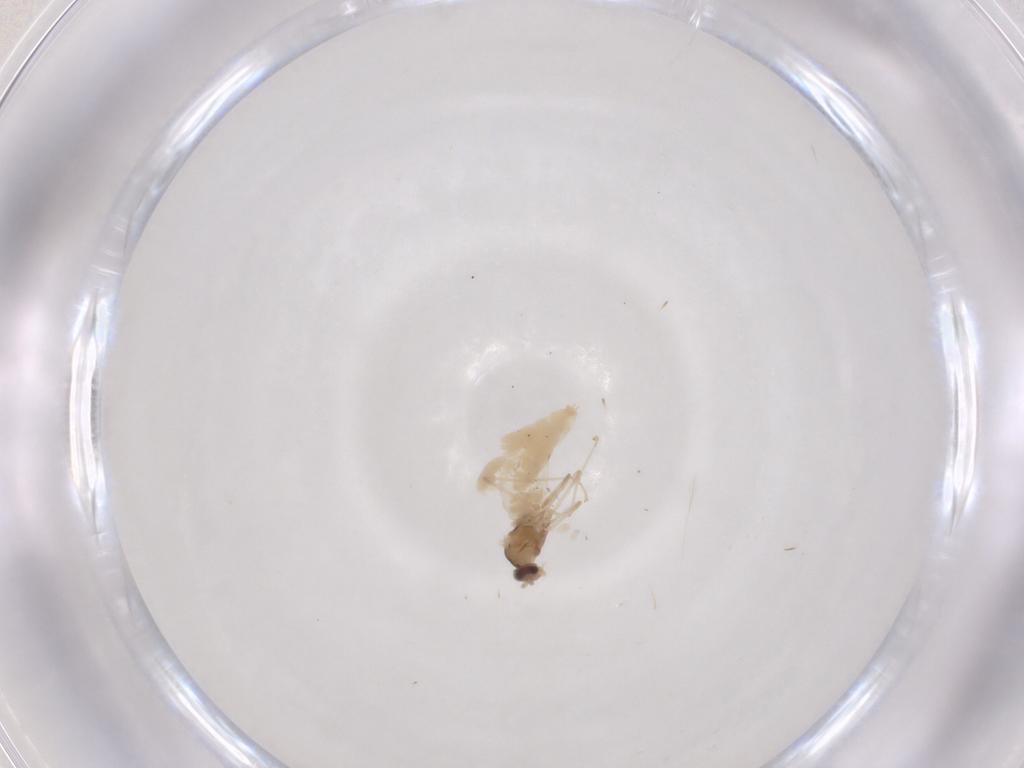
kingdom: Animalia
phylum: Arthropoda
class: Insecta
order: Diptera
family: Cecidomyiidae
